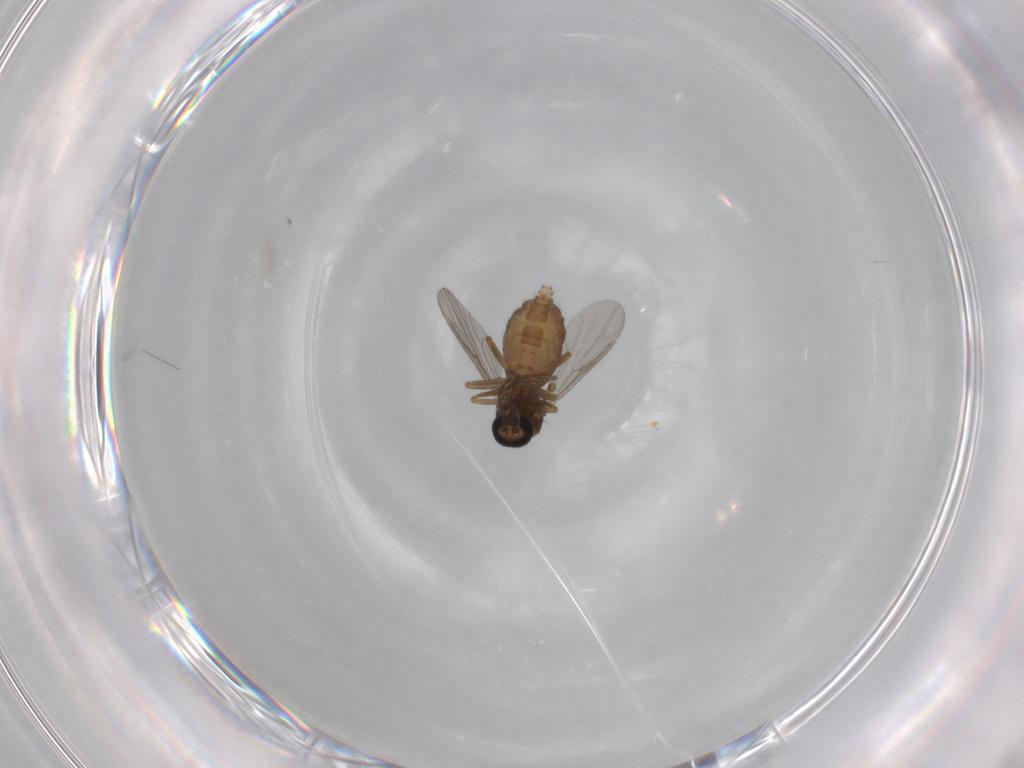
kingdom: Animalia
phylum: Arthropoda
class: Insecta
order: Diptera
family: Ceratopogonidae
